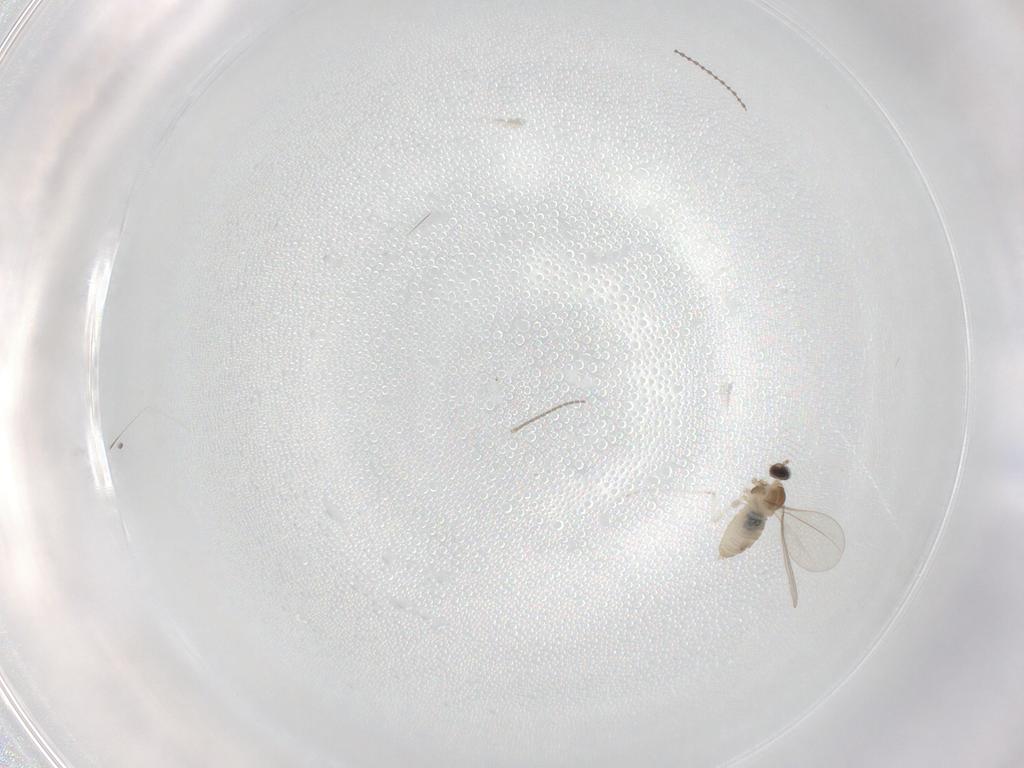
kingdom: Animalia
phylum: Arthropoda
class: Insecta
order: Diptera
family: Cecidomyiidae
